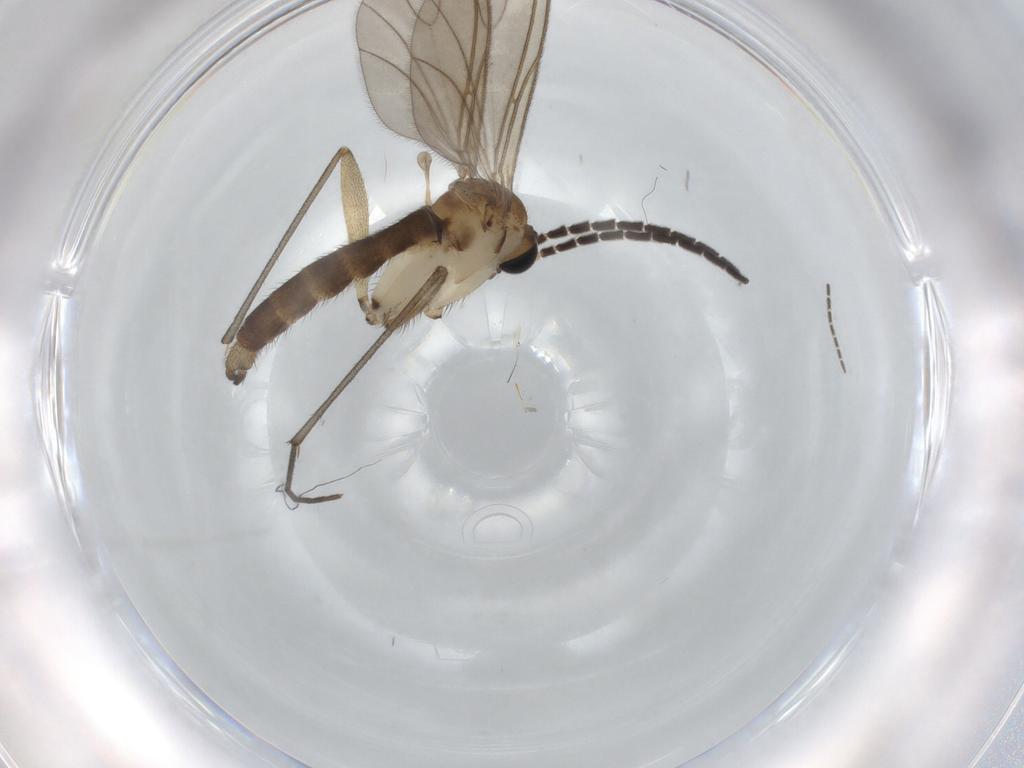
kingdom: Animalia
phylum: Arthropoda
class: Insecta
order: Diptera
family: Sciaridae
